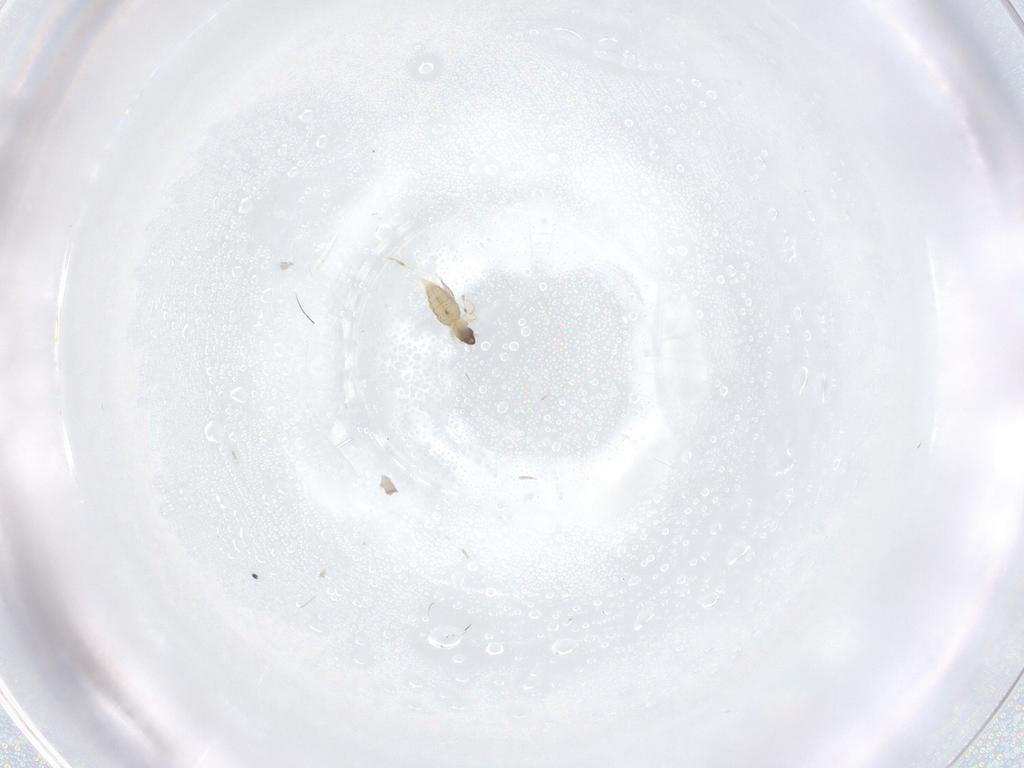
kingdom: Animalia
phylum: Arthropoda
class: Insecta
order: Diptera
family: Cecidomyiidae
